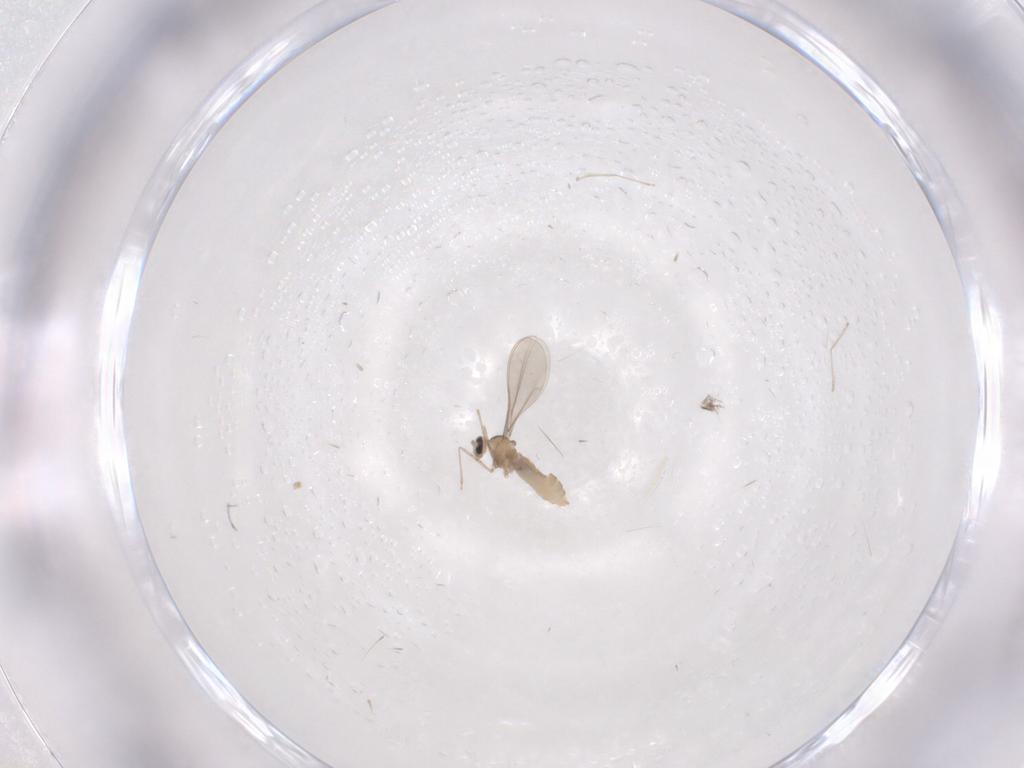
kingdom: Animalia
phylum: Arthropoda
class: Insecta
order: Diptera
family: Cecidomyiidae
